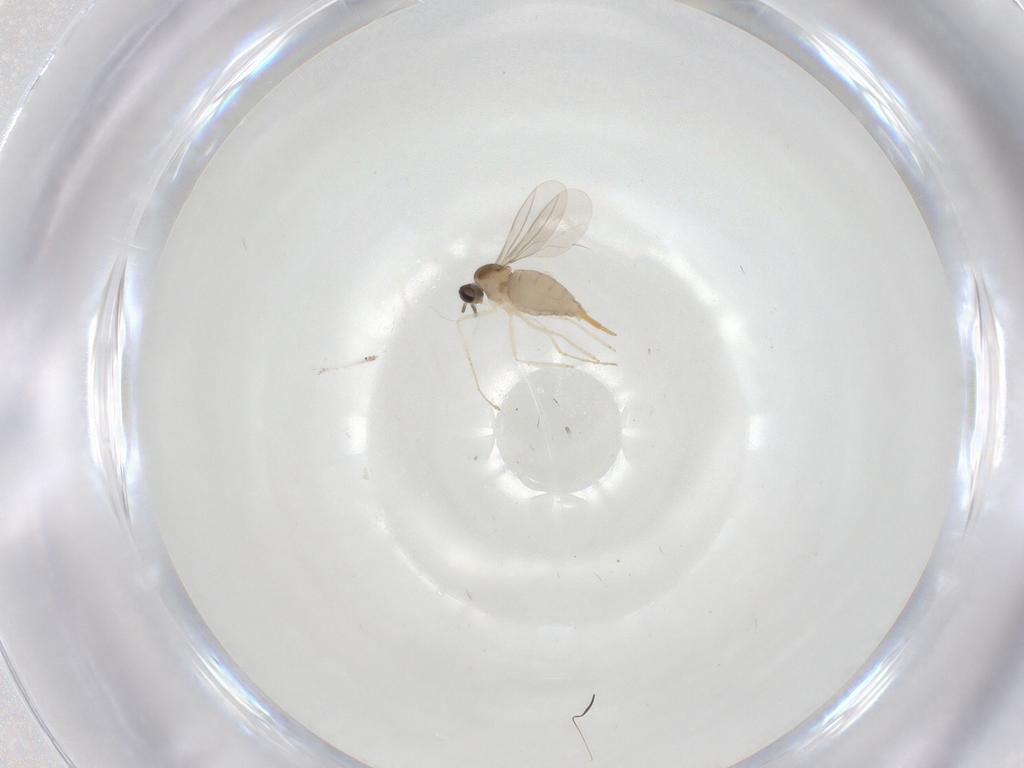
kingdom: Animalia
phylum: Arthropoda
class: Insecta
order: Diptera
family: Cecidomyiidae
